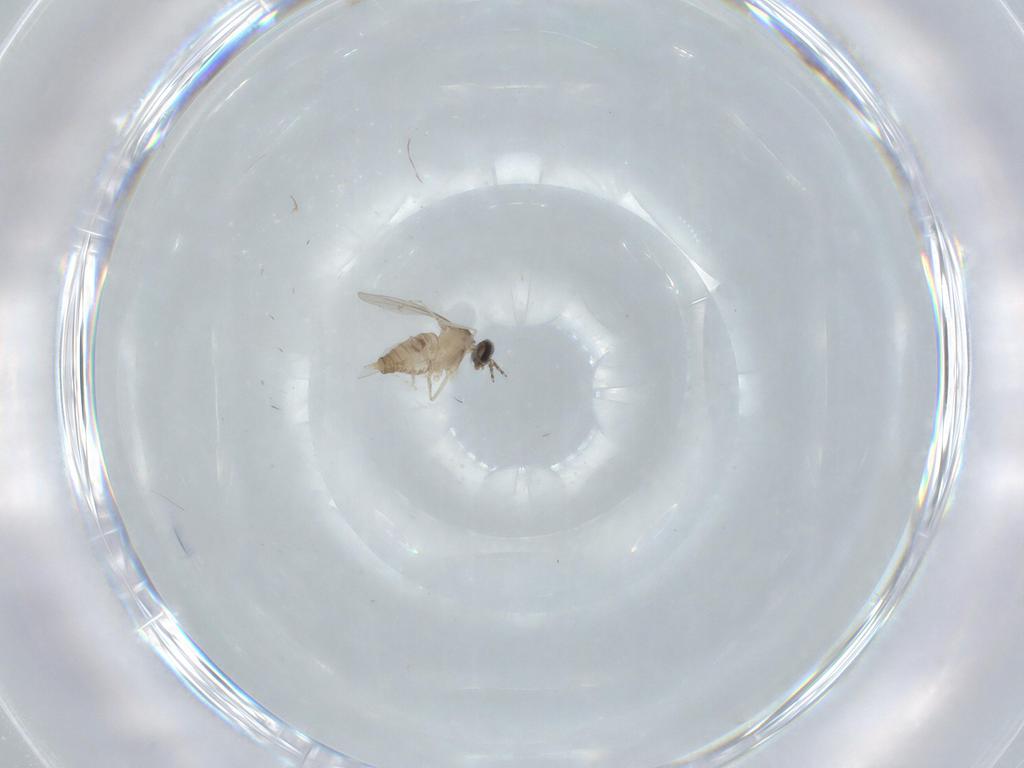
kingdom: Animalia
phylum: Arthropoda
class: Insecta
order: Diptera
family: Cecidomyiidae
